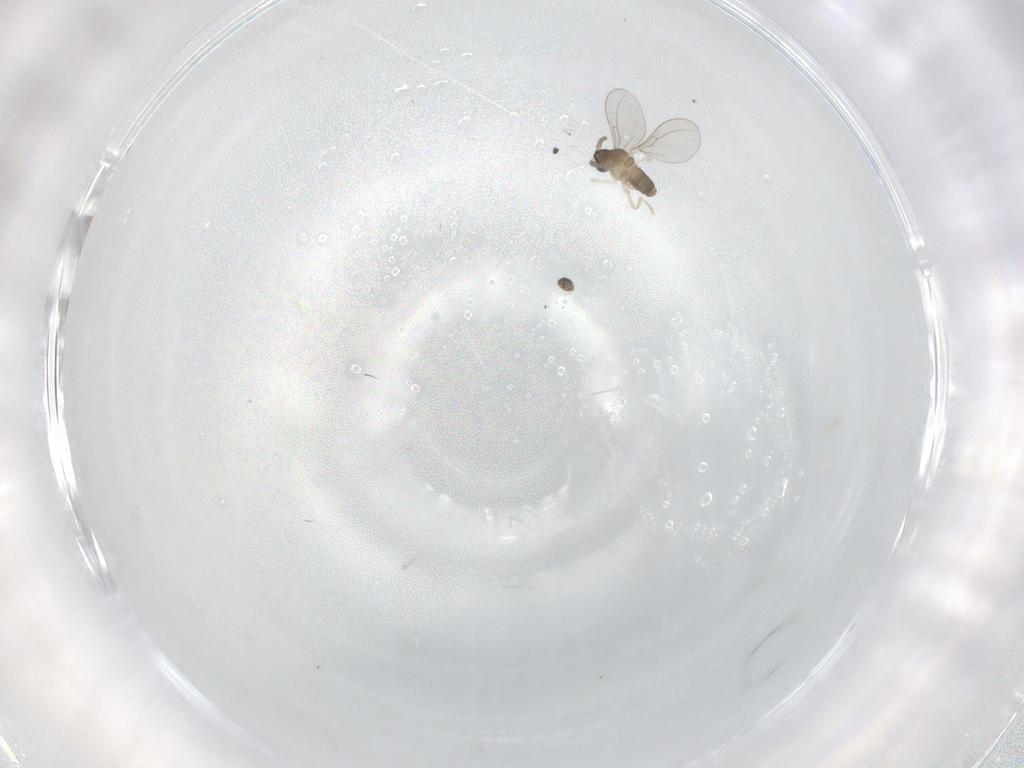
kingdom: Animalia
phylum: Arthropoda
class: Insecta
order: Diptera
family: Cecidomyiidae
